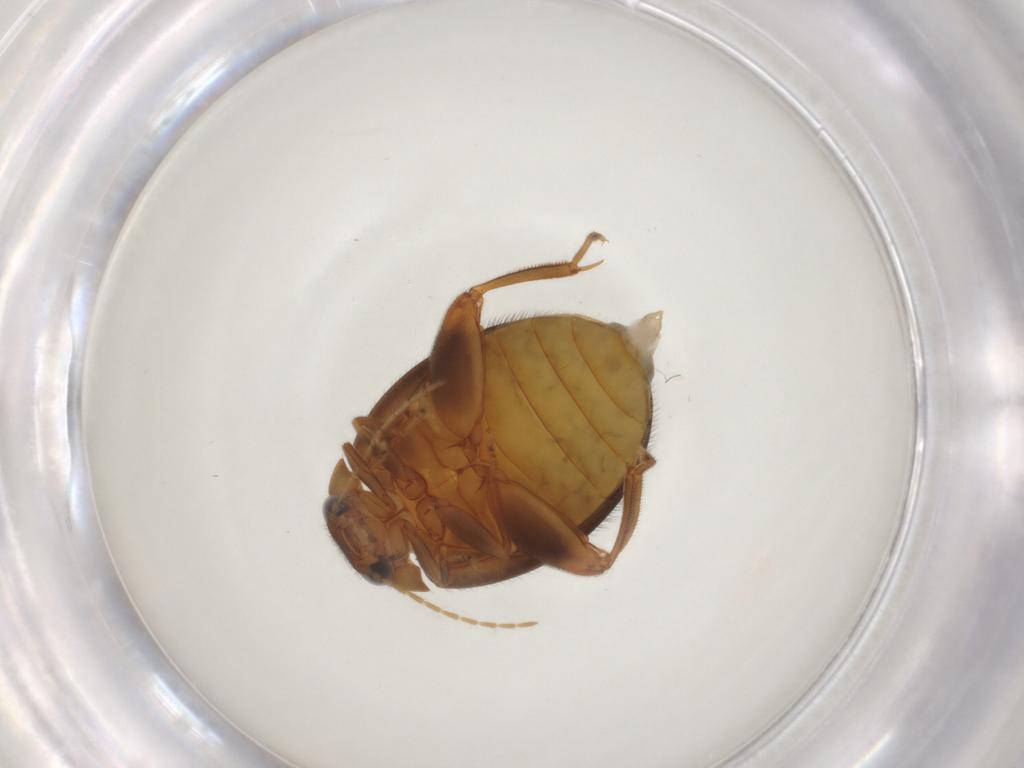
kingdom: Animalia
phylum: Arthropoda
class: Insecta
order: Coleoptera
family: Scirtidae
